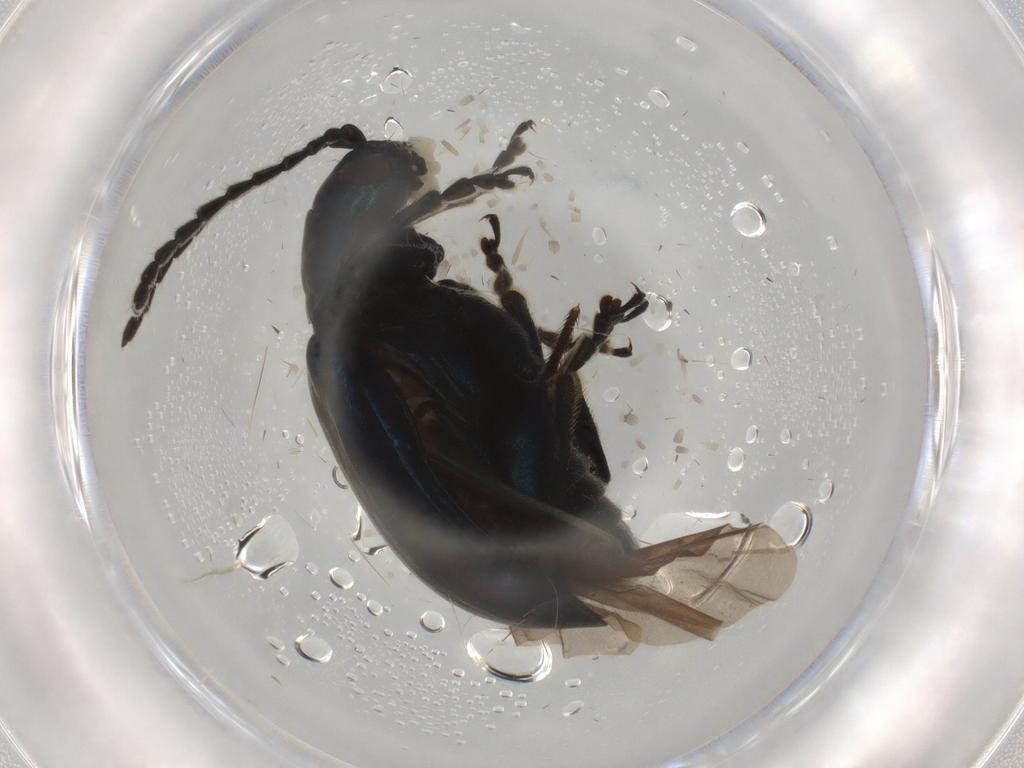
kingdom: Animalia
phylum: Arthropoda
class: Insecta
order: Coleoptera
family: Chrysomelidae
